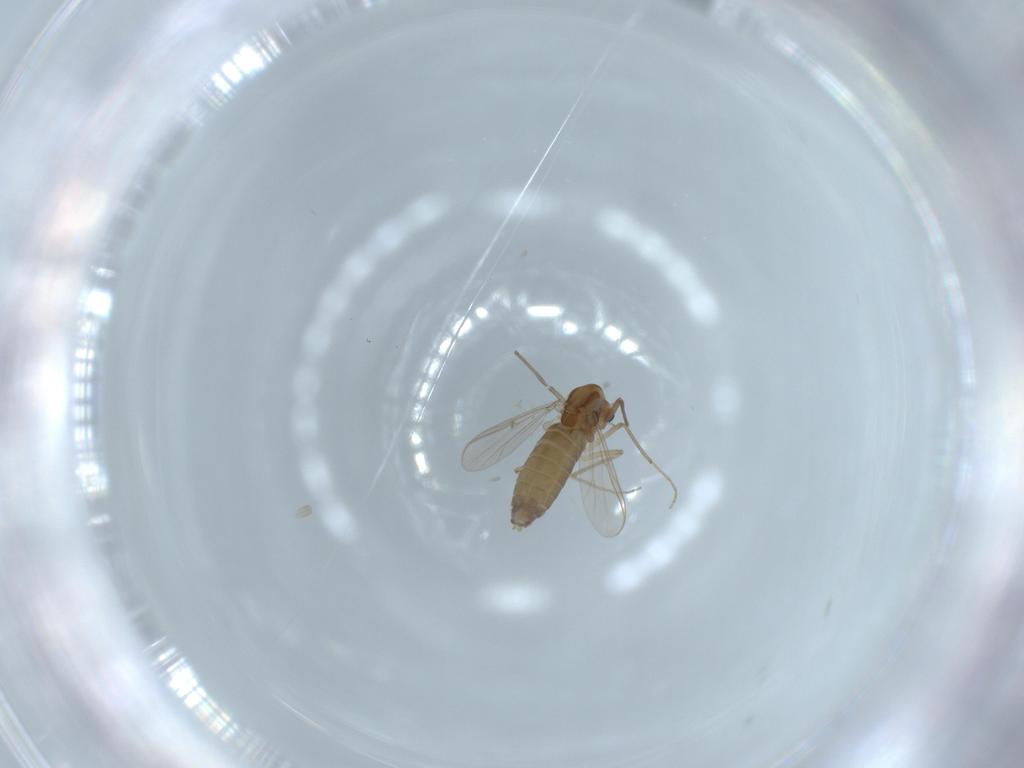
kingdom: Animalia
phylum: Arthropoda
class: Insecta
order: Diptera
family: Chironomidae
